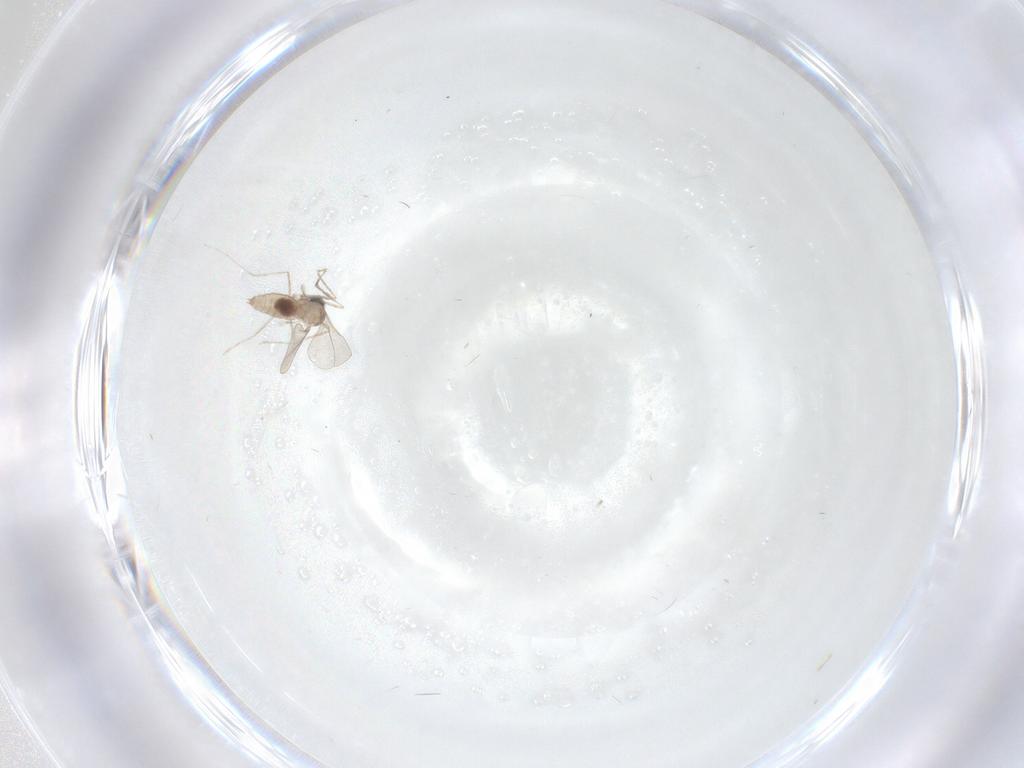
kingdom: Animalia
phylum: Arthropoda
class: Insecta
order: Diptera
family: Cecidomyiidae
